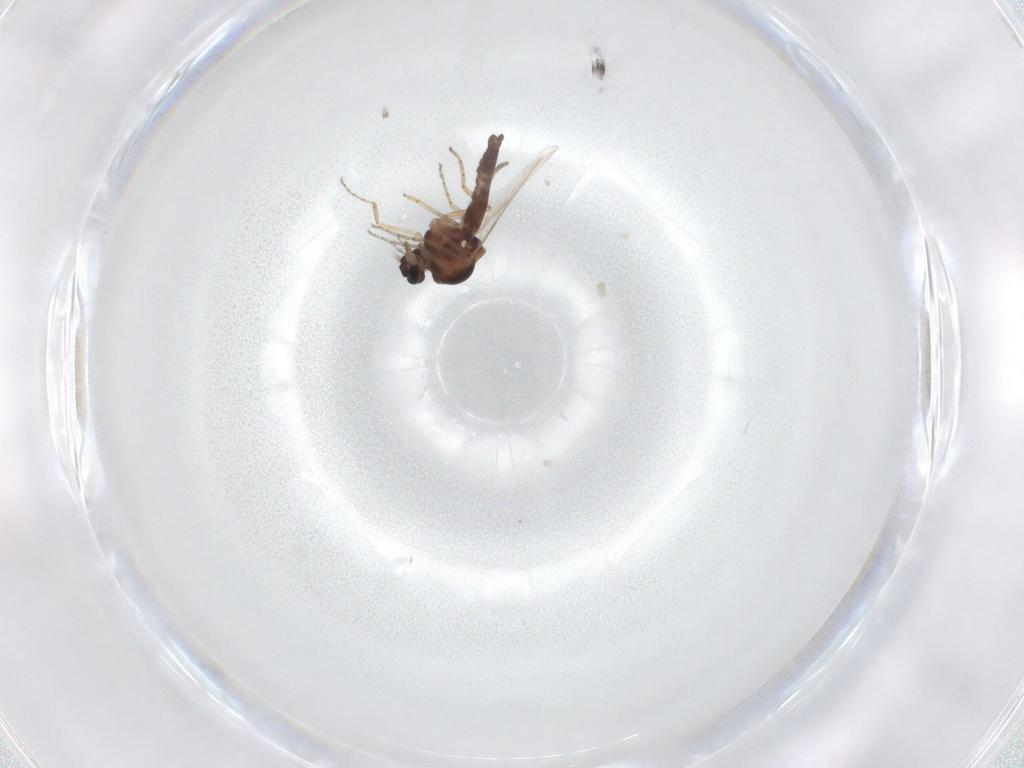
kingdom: Animalia
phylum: Arthropoda
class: Insecta
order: Diptera
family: Ceratopogonidae
